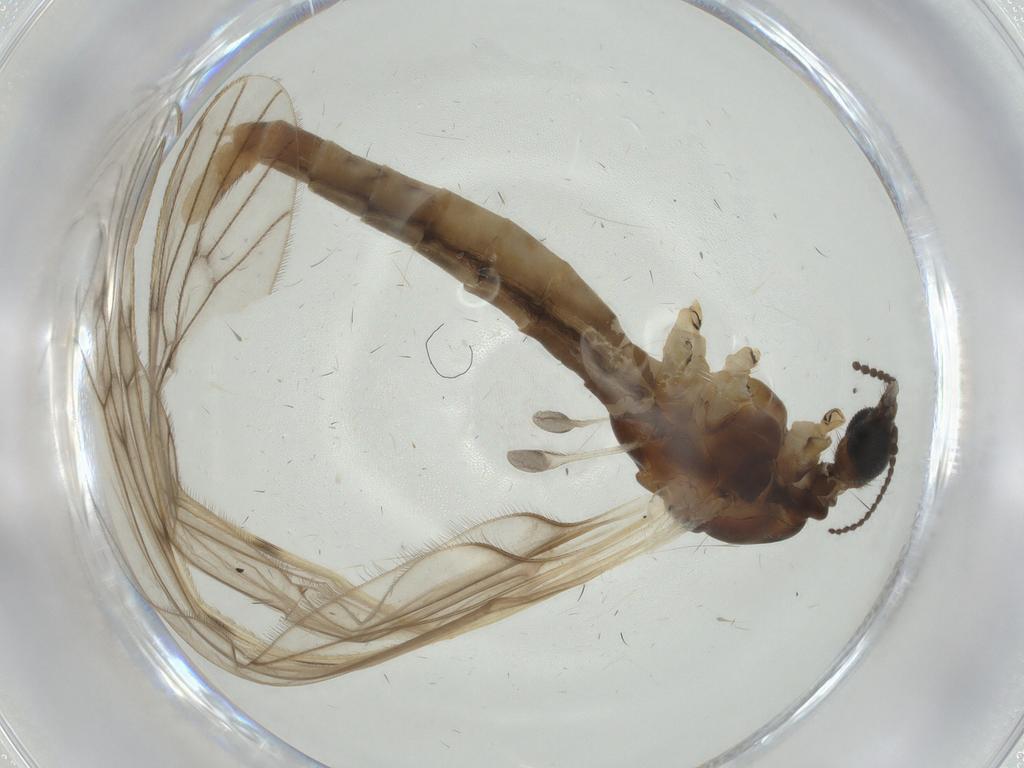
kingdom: Animalia
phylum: Arthropoda
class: Insecta
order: Diptera
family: Limoniidae
